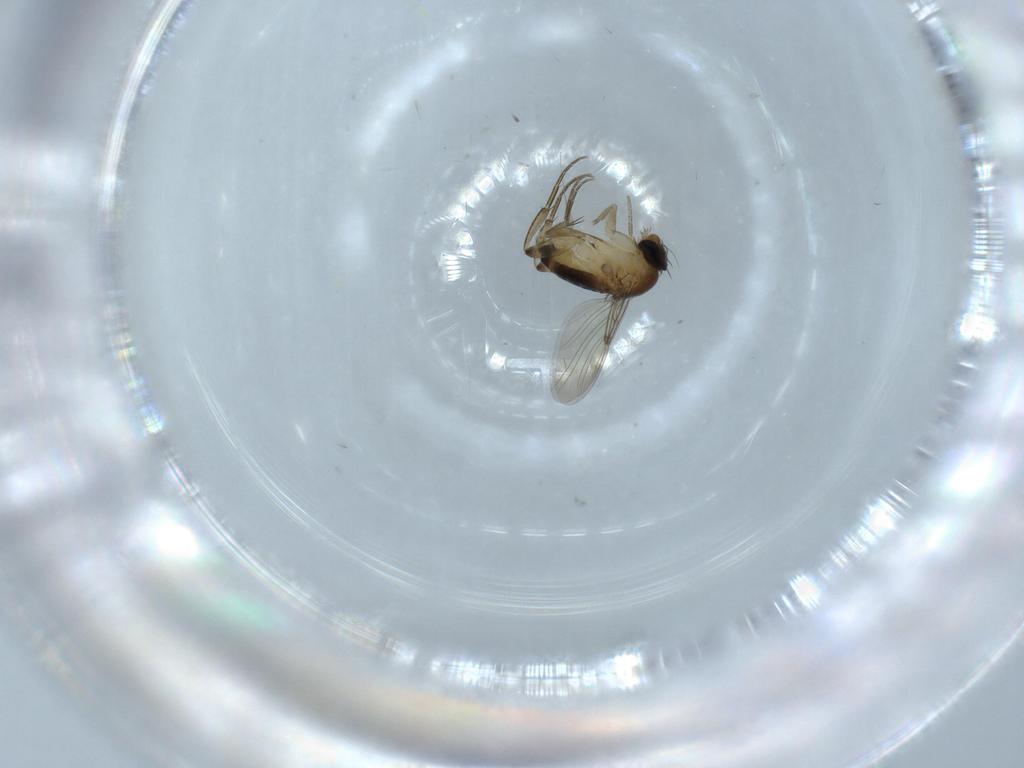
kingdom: Animalia
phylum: Arthropoda
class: Insecta
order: Diptera
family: Phoridae
